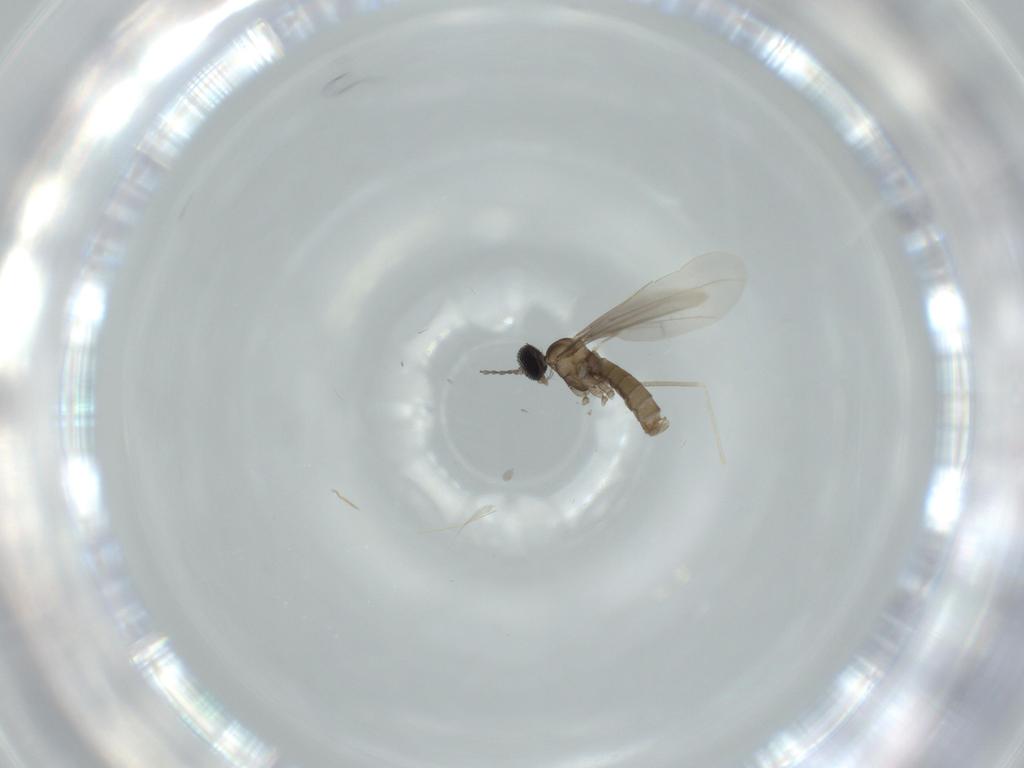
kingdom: Animalia
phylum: Arthropoda
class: Insecta
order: Diptera
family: Cecidomyiidae
